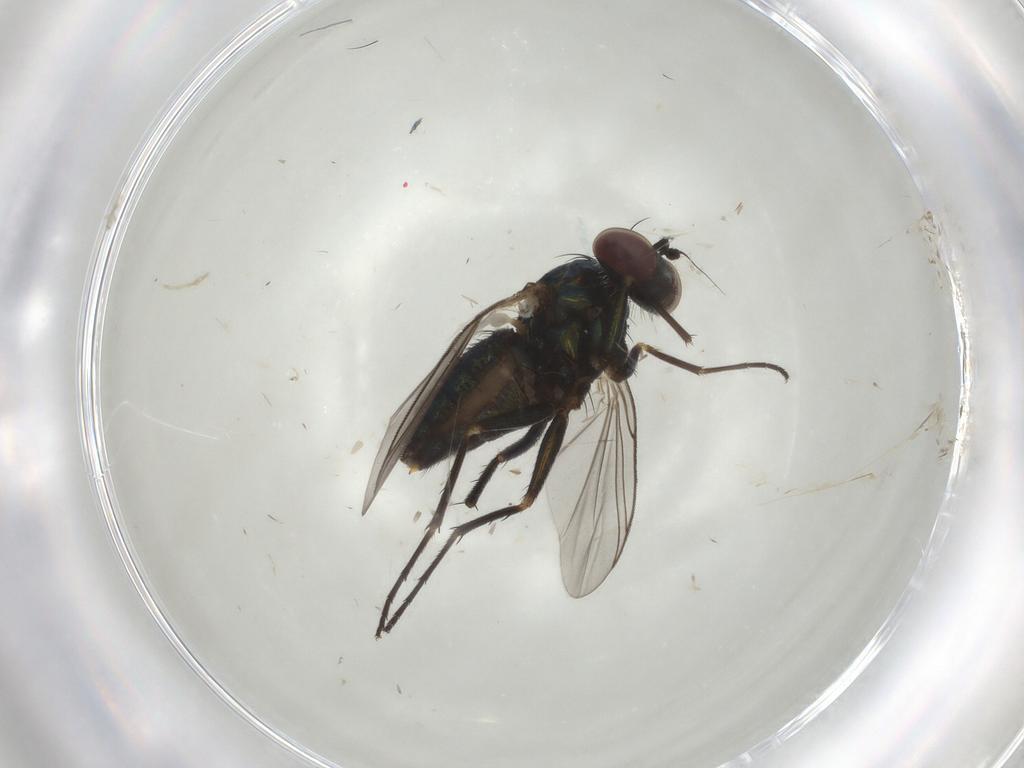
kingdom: Animalia
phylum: Arthropoda
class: Insecta
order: Diptera
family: Dolichopodidae
